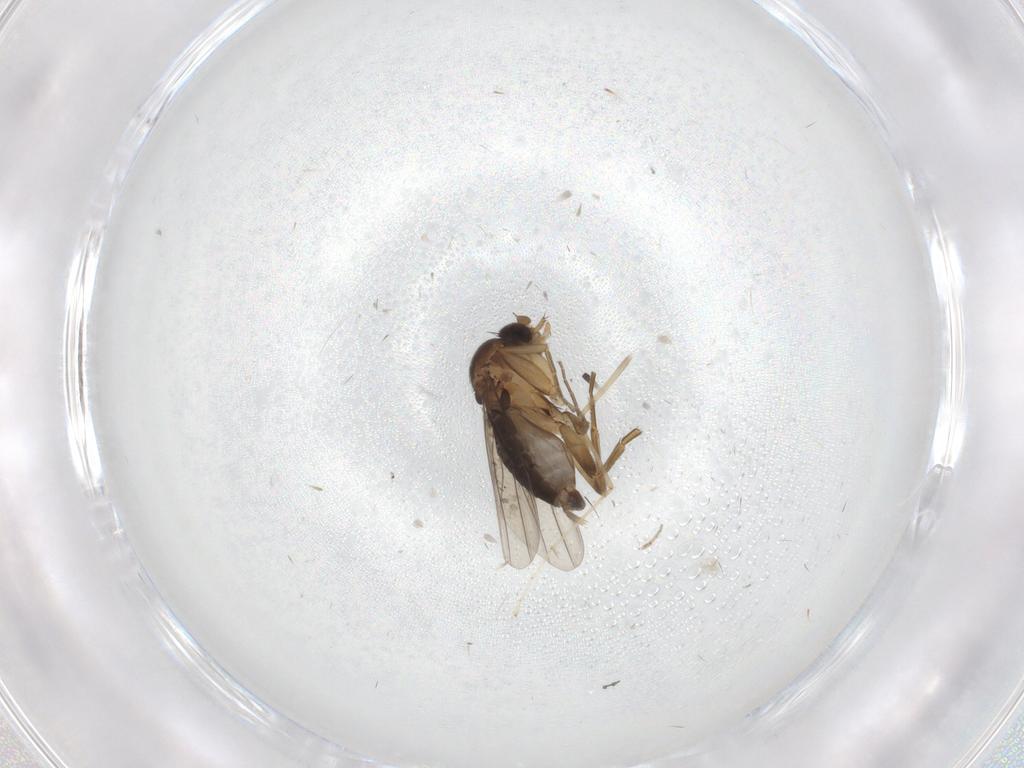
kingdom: Animalia
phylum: Arthropoda
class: Insecta
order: Diptera
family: Phoridae
